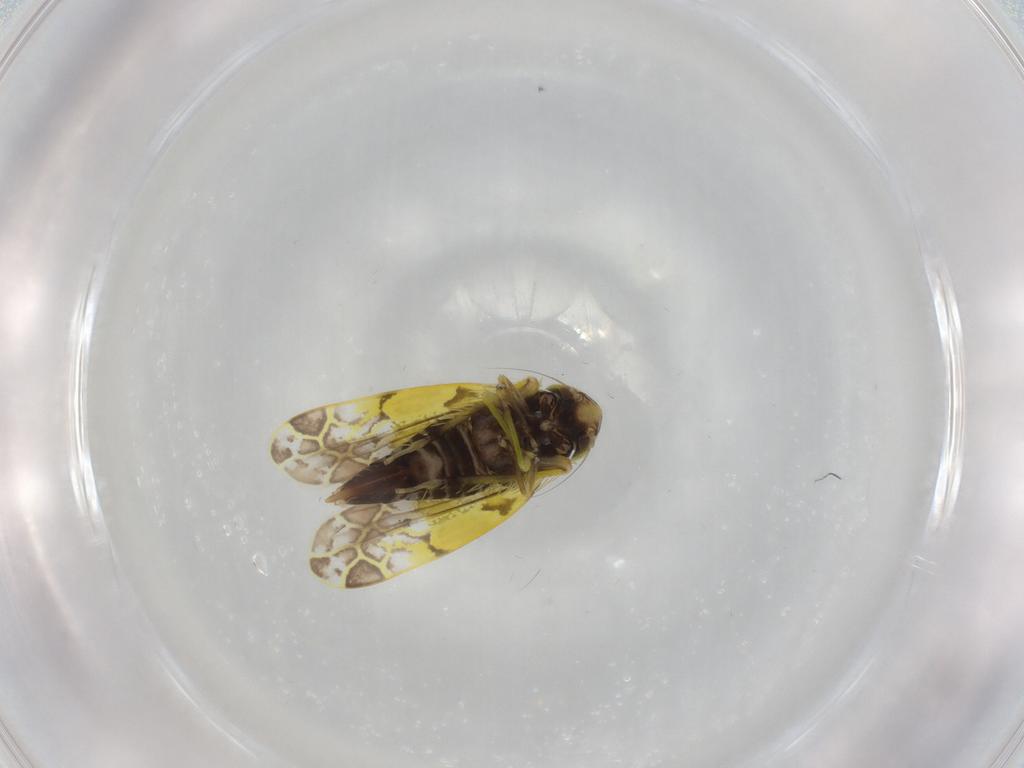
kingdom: Animalia
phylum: Arthropoda
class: Insecta
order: Hemiptera
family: Cicadellidae
